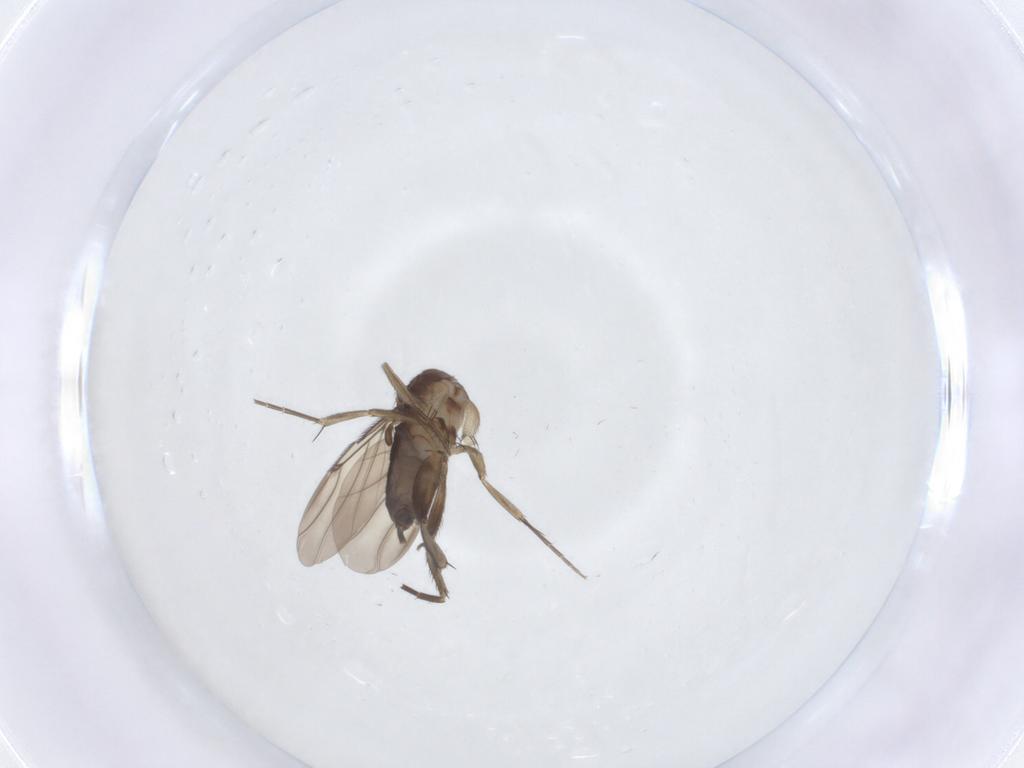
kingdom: Animalia
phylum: Arthropoda
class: Insecta
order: Diptera
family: Phoridae
